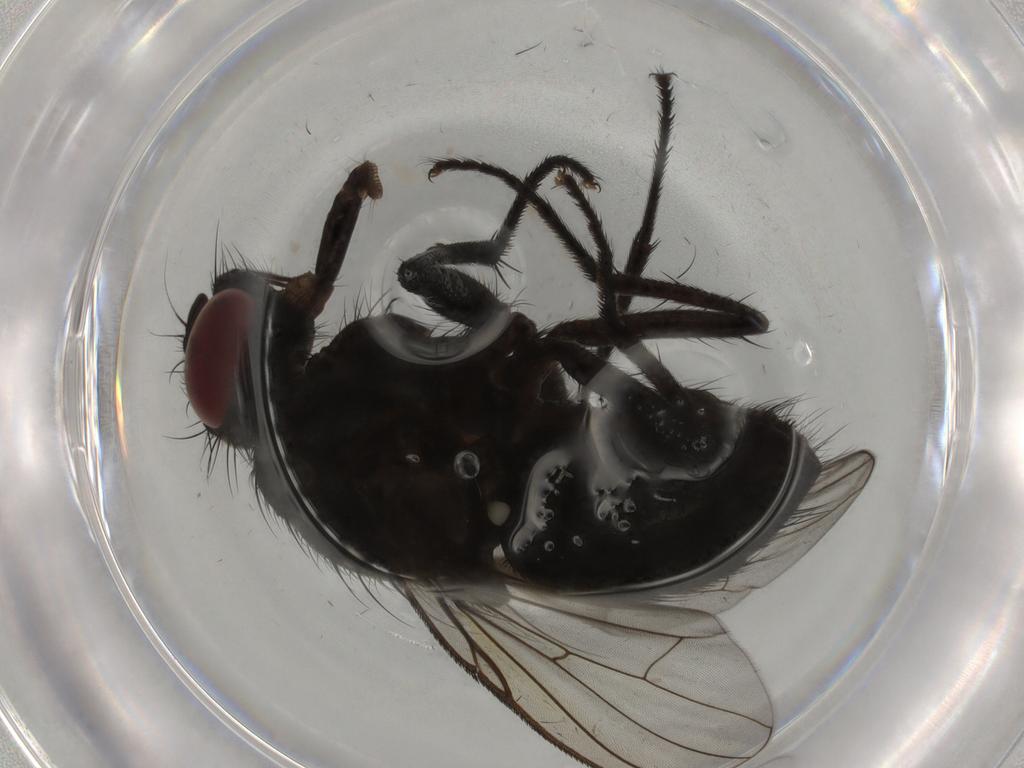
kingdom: Animalia
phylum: Arthropoda
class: Insecta
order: Diptera
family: Muscidae
